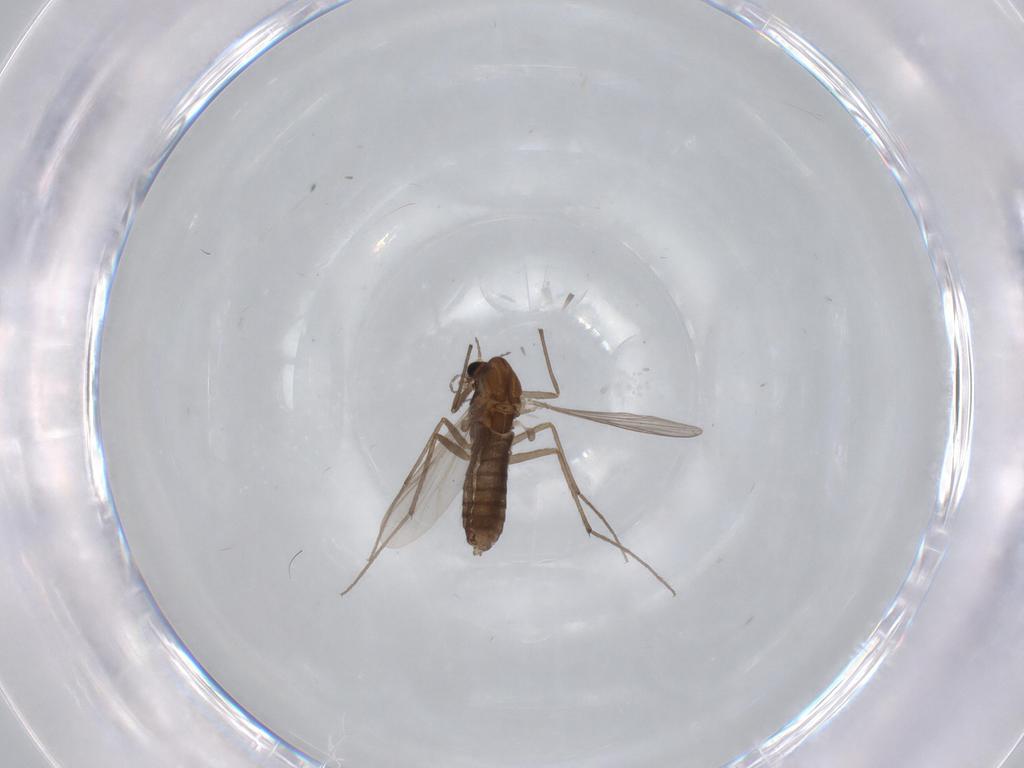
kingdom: Animalia
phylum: Arthropoda
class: Insecta
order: Diptera
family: Chironomidae
